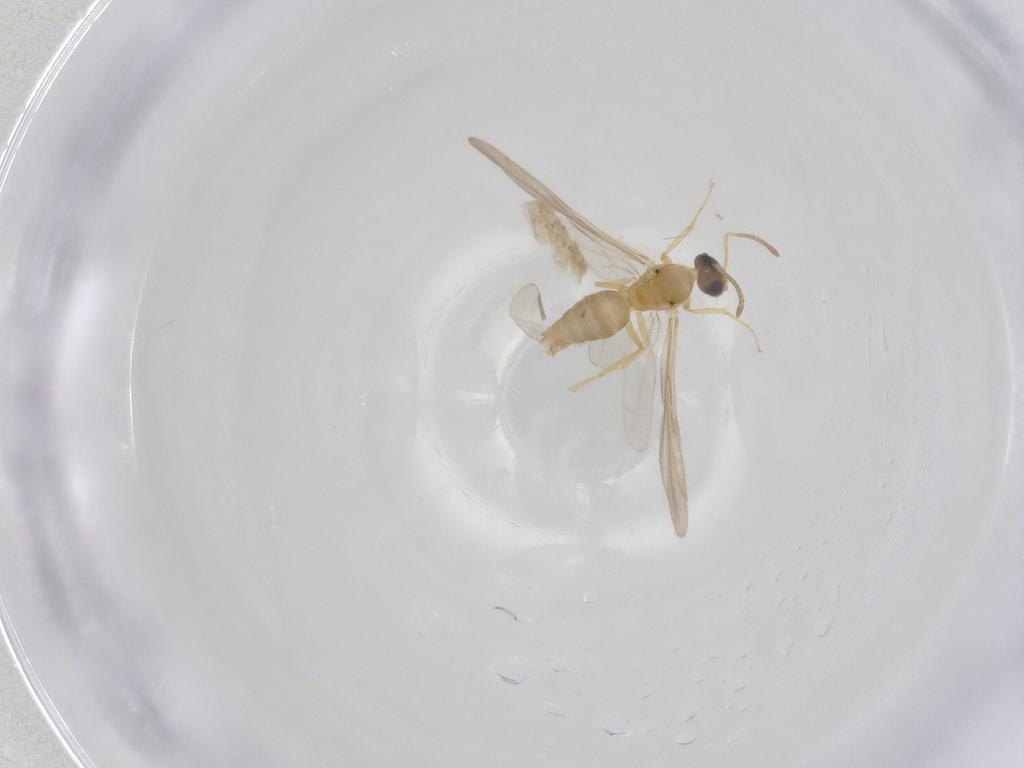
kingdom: Animalia
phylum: Arthropoda
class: Insecta
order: Hymenoptera
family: Formicidae
